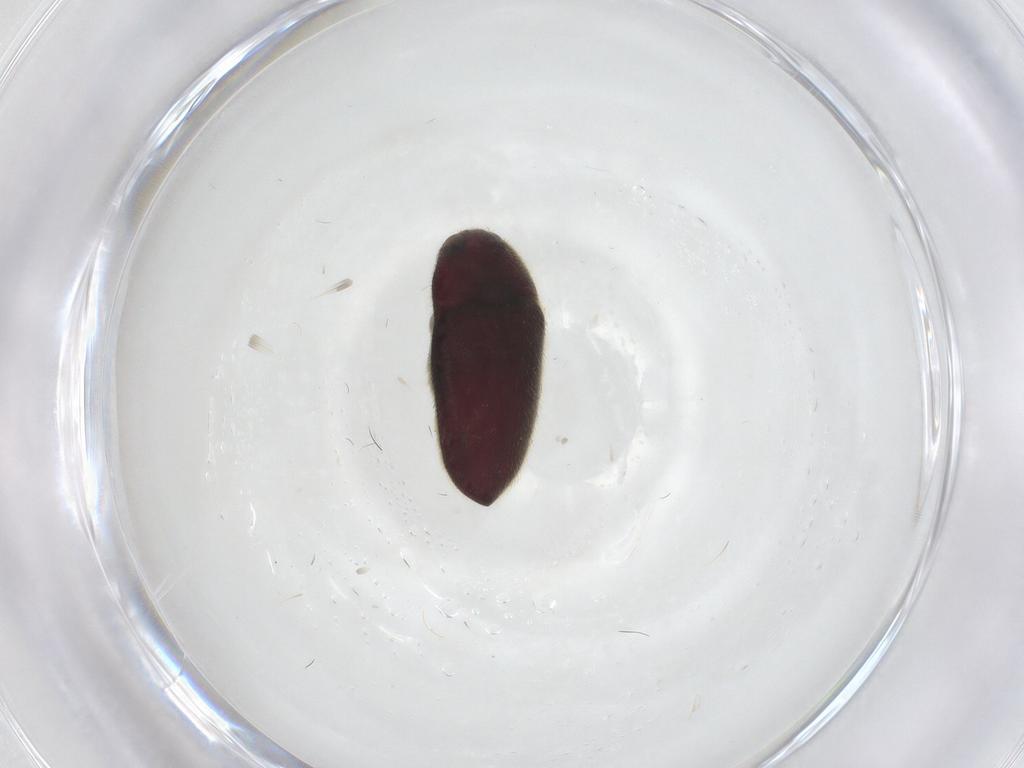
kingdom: Animalia
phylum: Arthropoda
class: Insecta
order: Coleoptera
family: Throscidae
